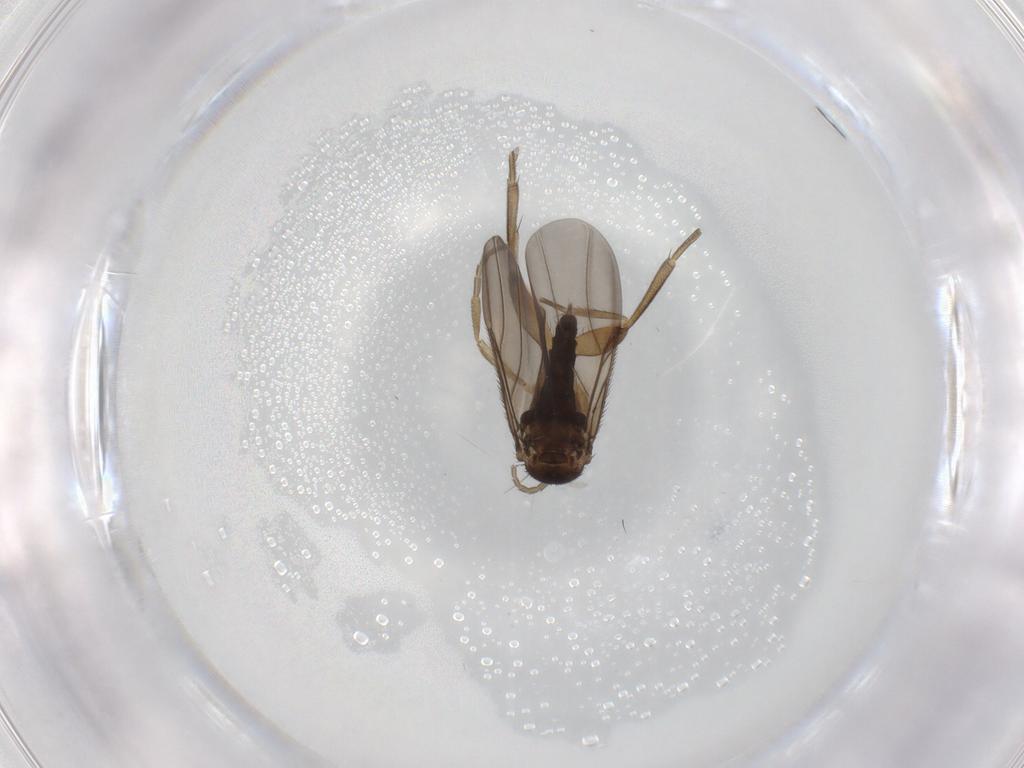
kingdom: Animalia
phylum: Arthropoda
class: Insecta
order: Diptera
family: Phoridae
